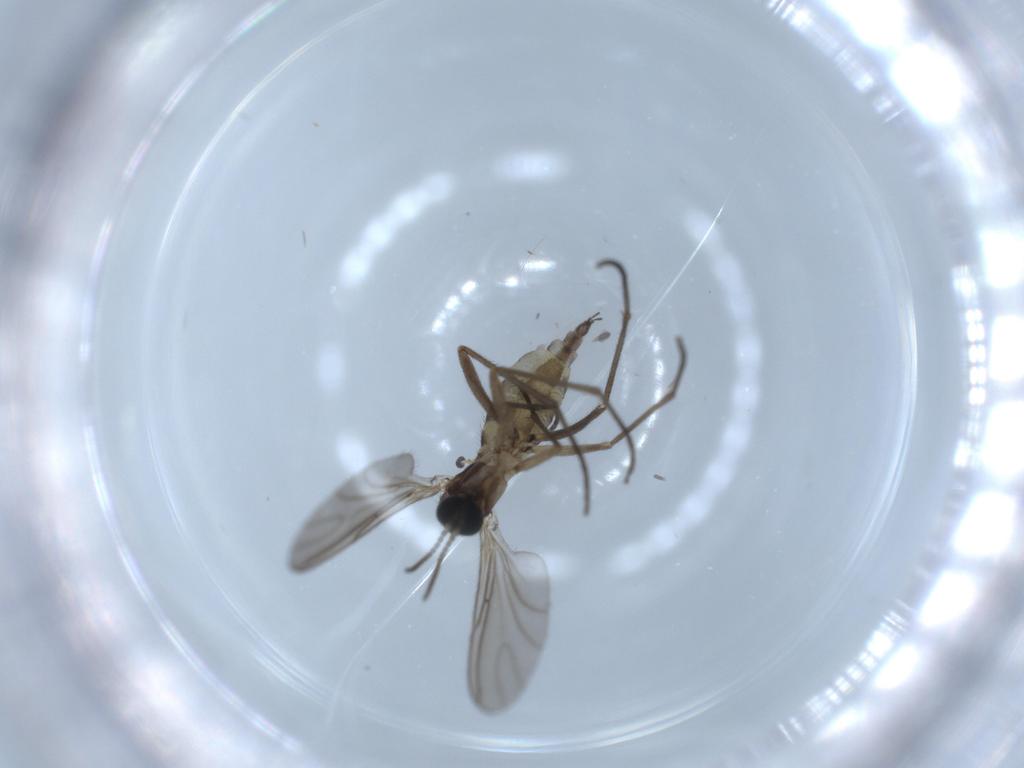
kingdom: Animalia
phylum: Arthropoda
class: Insecta
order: Diptera
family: Sciaridae
